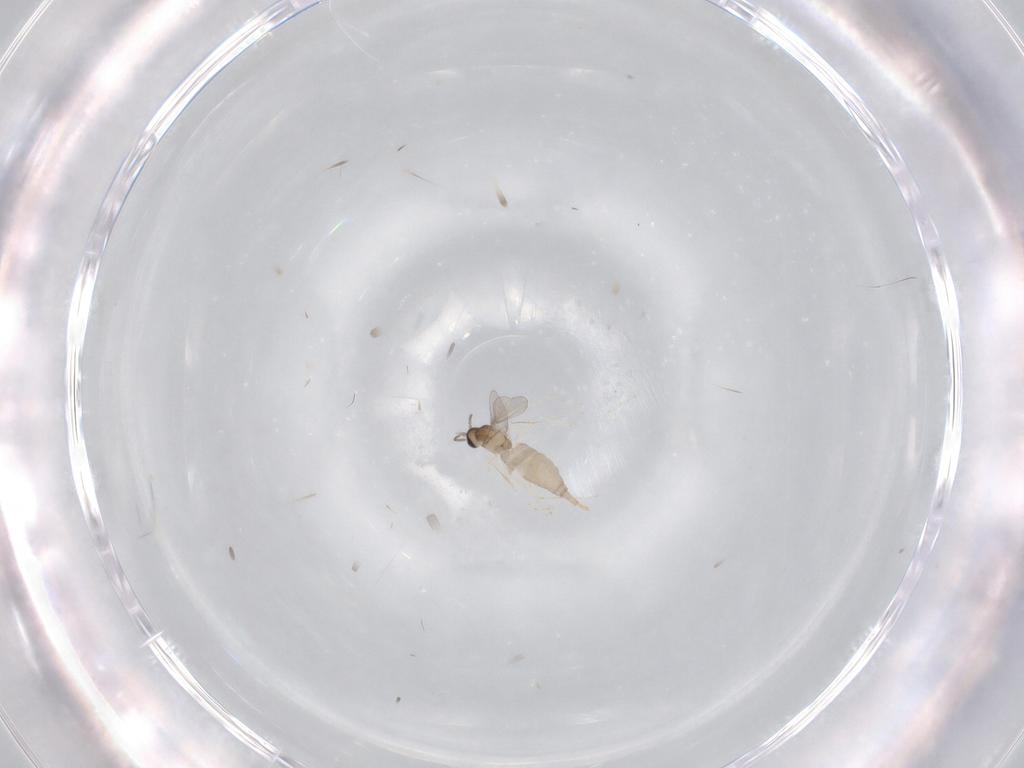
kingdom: Animalia
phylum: Arthropoda
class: Insecta
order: Diptera
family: Cecidomyiidae
